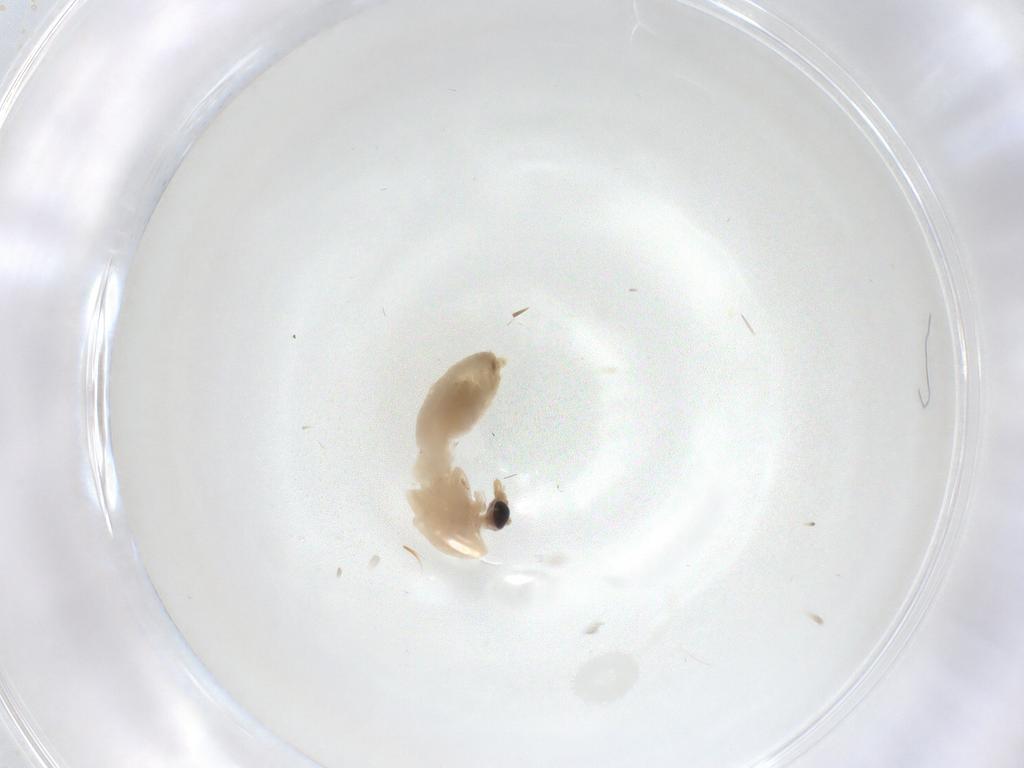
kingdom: Animalia
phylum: Arthropoda
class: Insecta
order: Diptera
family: Chironomidae
